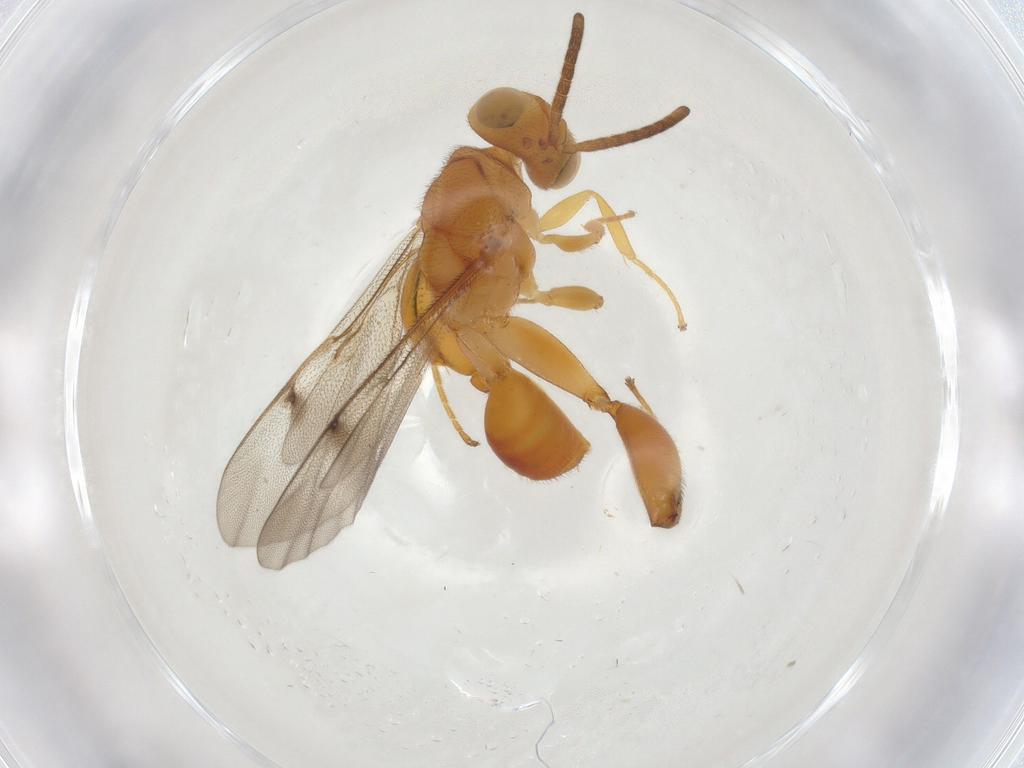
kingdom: Animalia
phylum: Arthropoda
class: Insecta
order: Hymenoptera
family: Chalcididae
